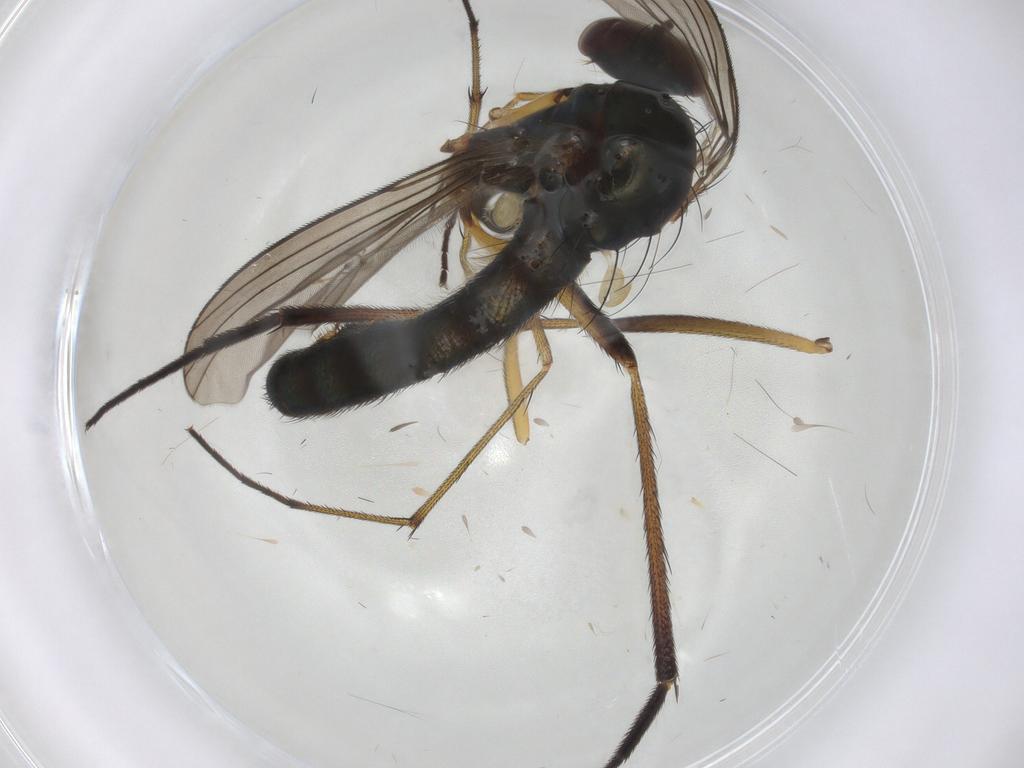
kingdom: Animalia
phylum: Arthropoda
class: Insecta
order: Diptera
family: Dolichopodidae
